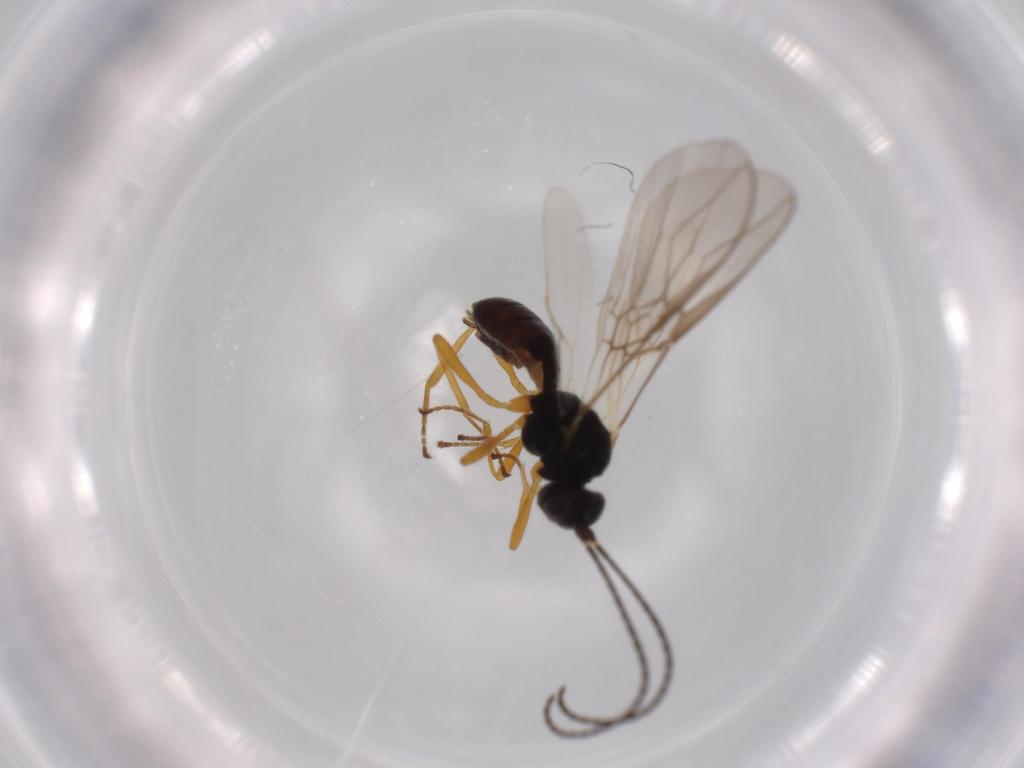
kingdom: Animalia
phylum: Arthropoda
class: Insecta
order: Hymenoptera
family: Braconidae
